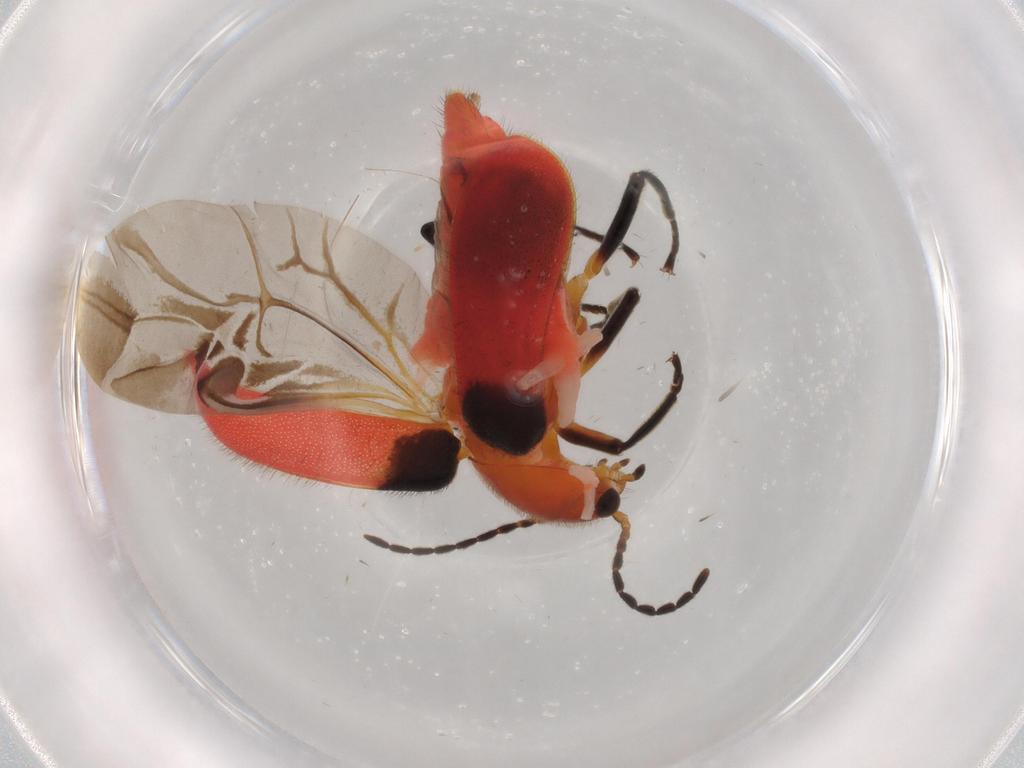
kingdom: Animalia
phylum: Arthropoda
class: Insecta
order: Coleoptera
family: Melyridae
